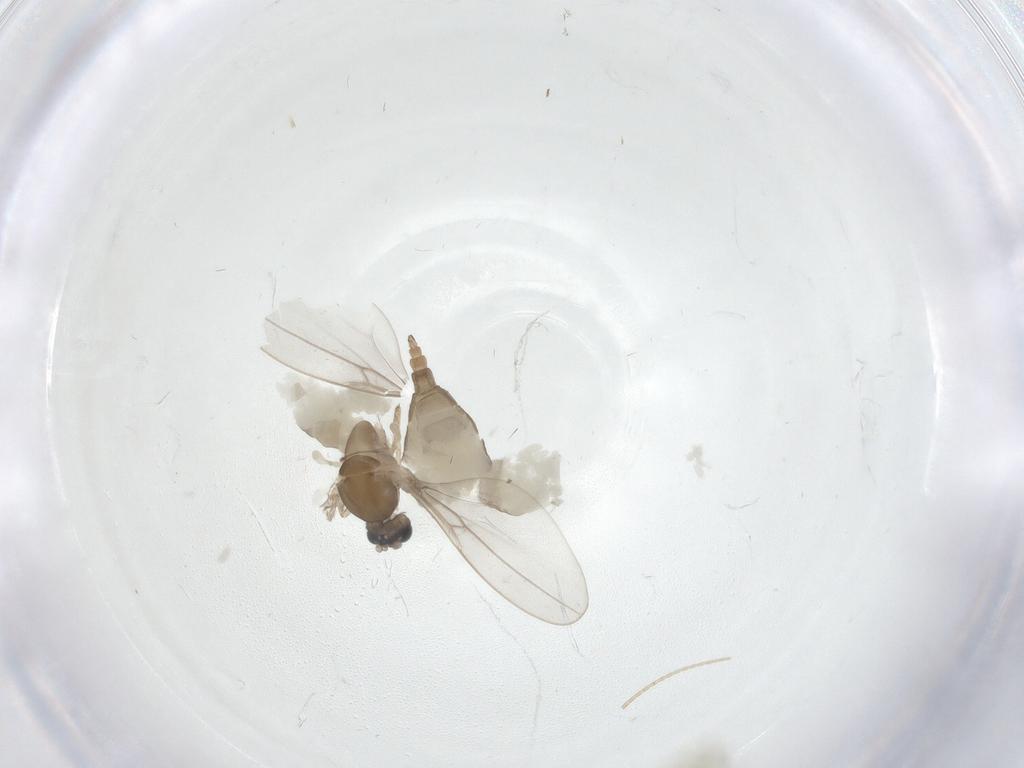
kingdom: Animalia
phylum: Arthropoda
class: Insecta
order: Diptera
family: Cecidomyiidae
